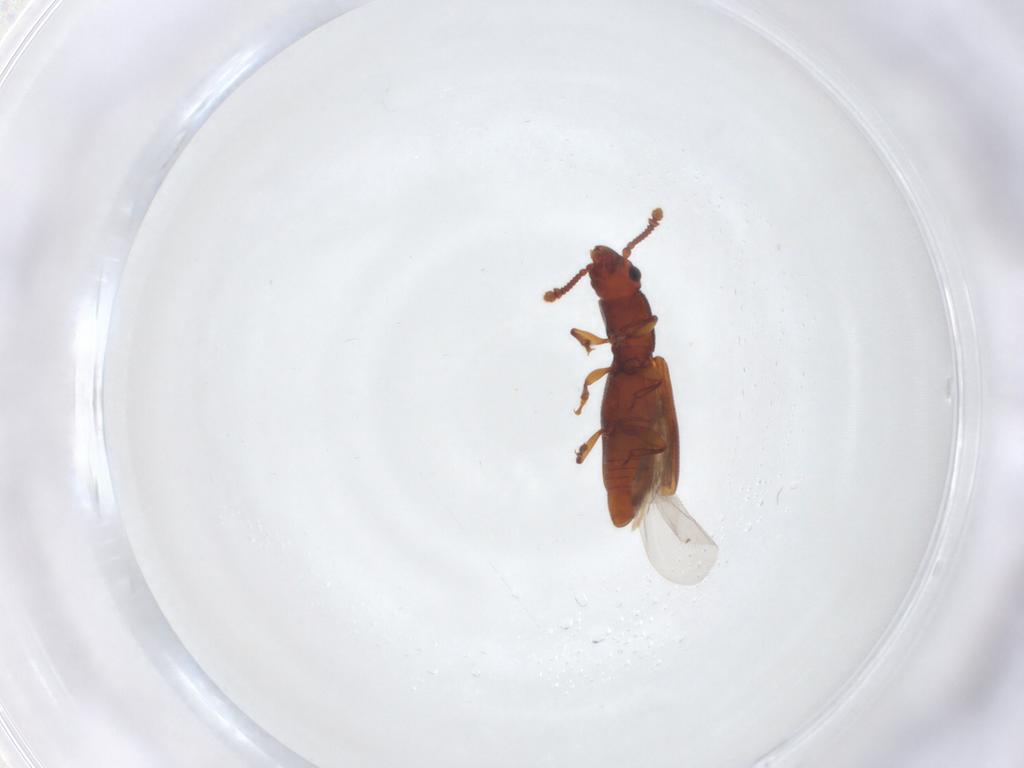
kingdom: Animalia
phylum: Arthropoda
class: Insecta
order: Coleoptera
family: Monotomidae
